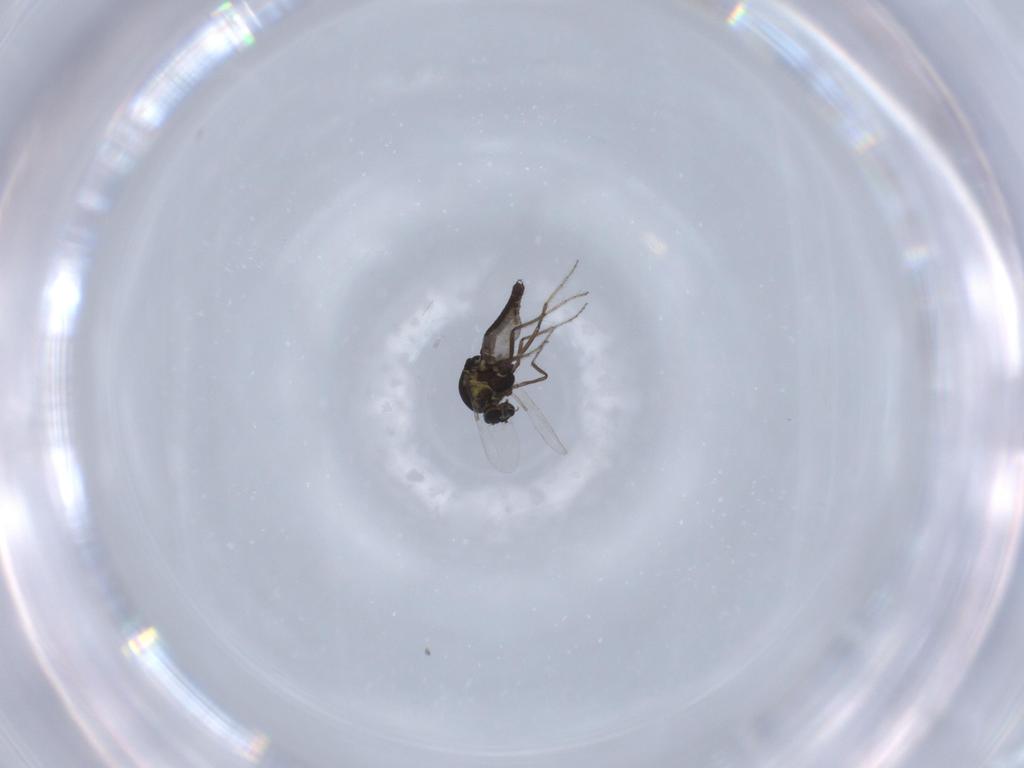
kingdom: Animalia
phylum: Arthropoda
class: Insecta
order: Diptera
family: Ceratopogonidae
